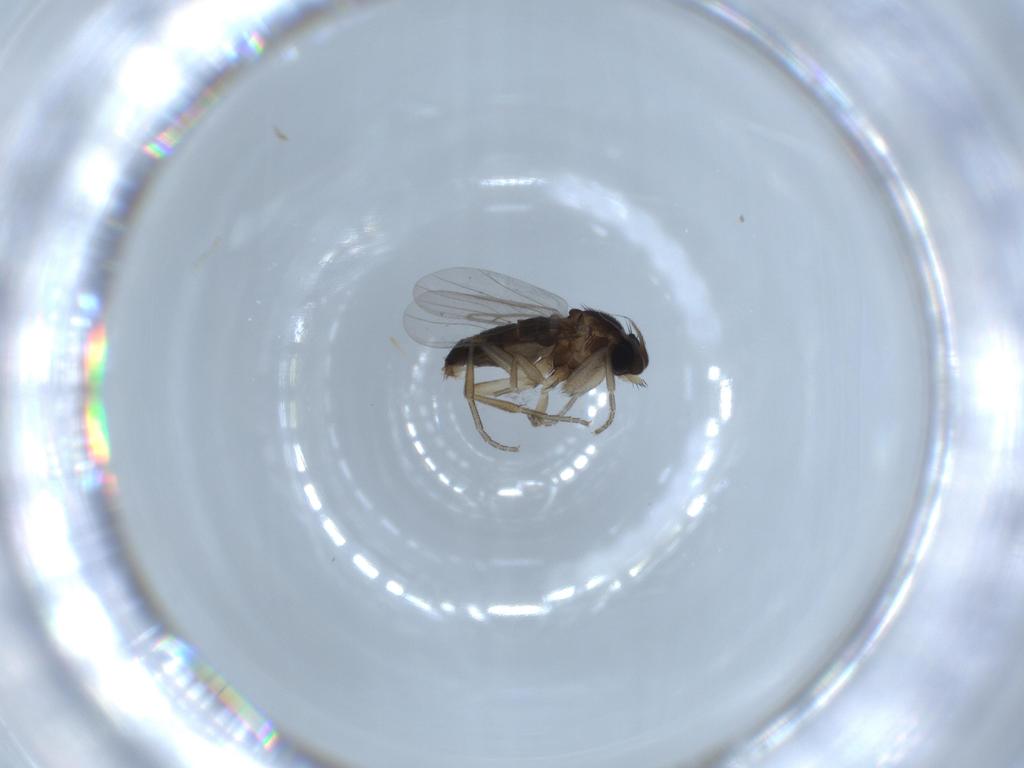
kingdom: Animalia
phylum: Arthropoda
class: Insecta
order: Diptera
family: Phoridae
